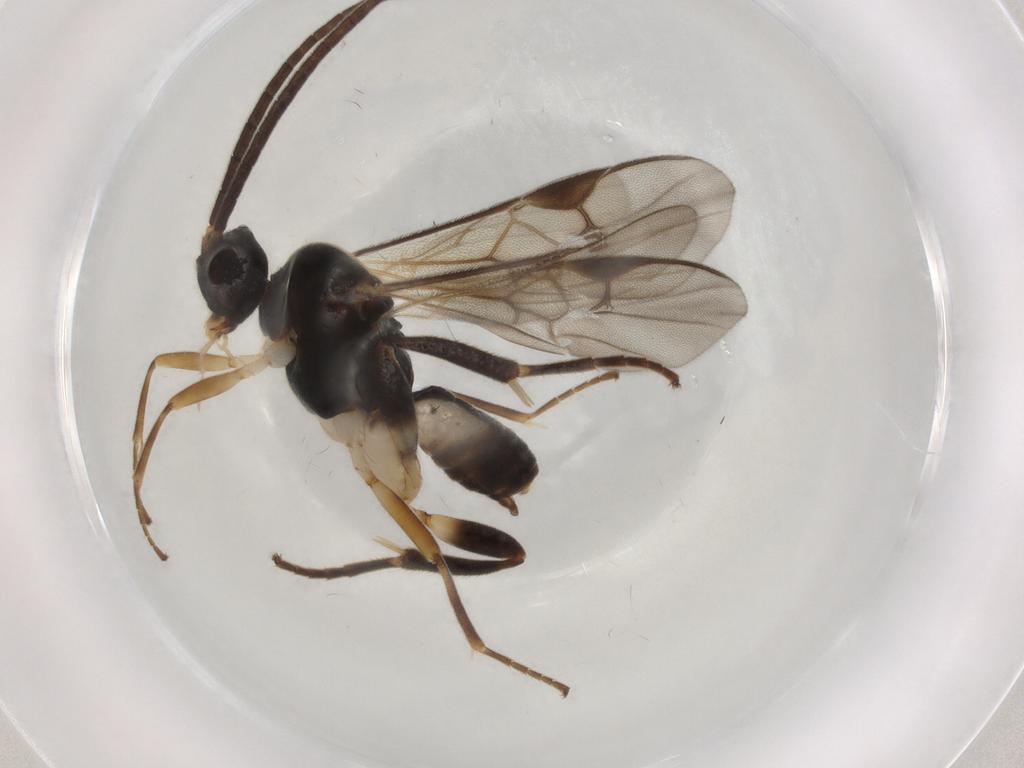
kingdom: Animalia
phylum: Arthropoda
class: Insecta
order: Hymenoptera
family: Braconidae
